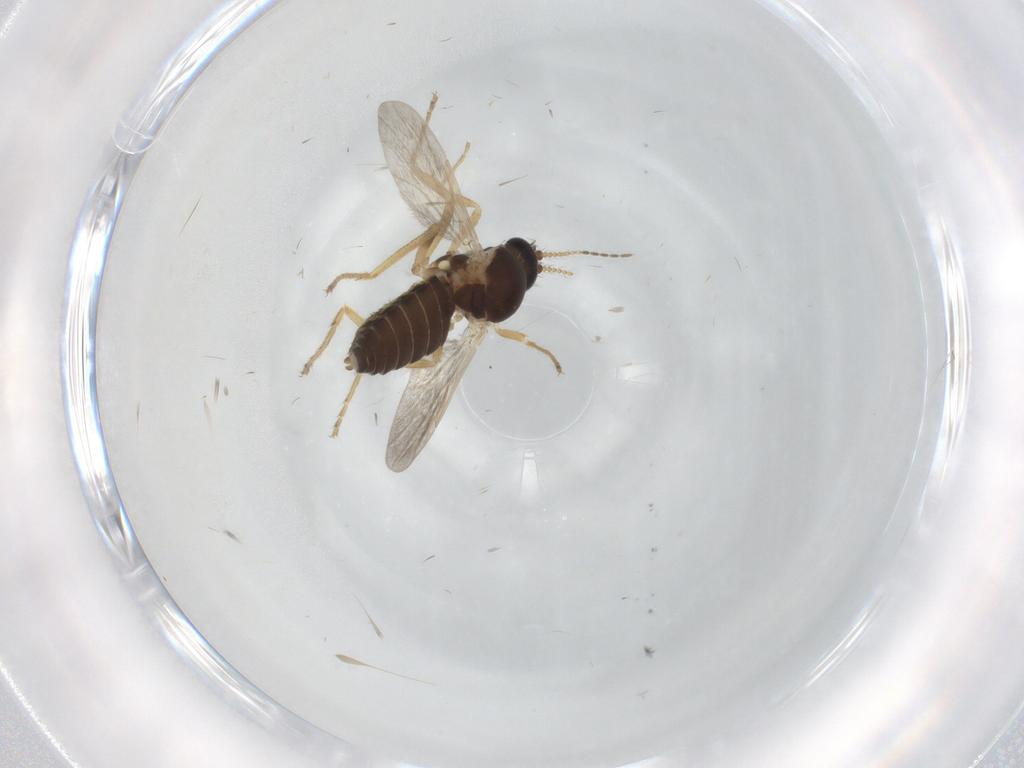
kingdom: Animalia
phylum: Arthropoda
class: Insecta
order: Diptera
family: Ceratopogonidae
